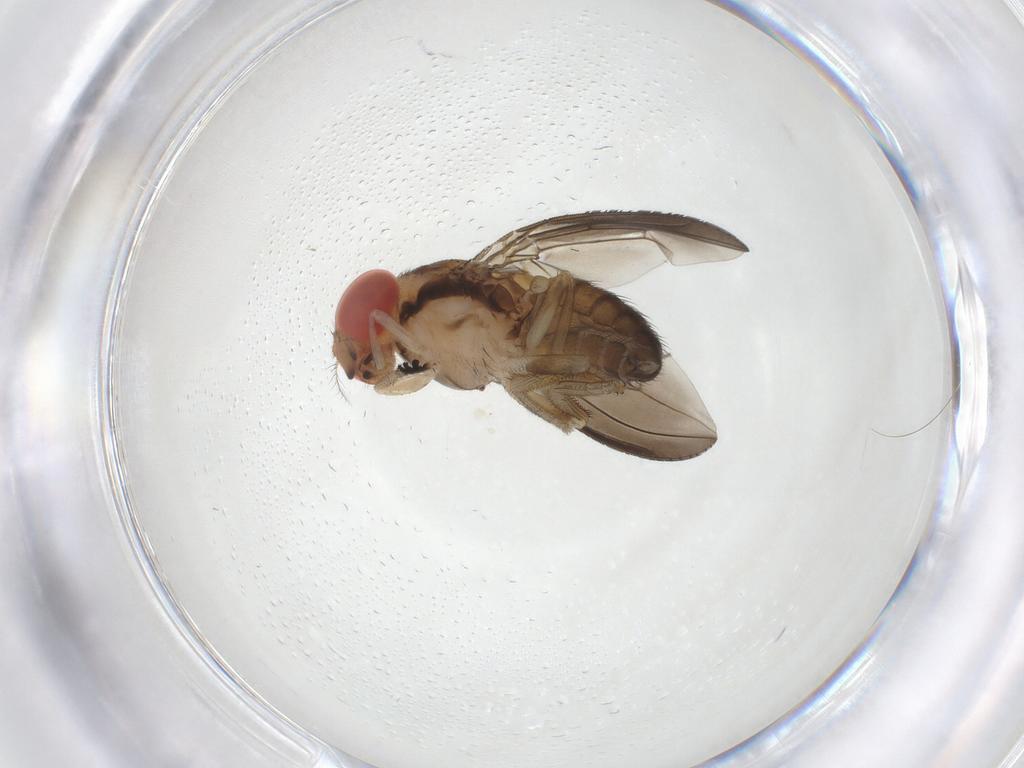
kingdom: Animalia
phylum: Arthropoda
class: Insecta
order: Diptera
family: Drosophilidae
